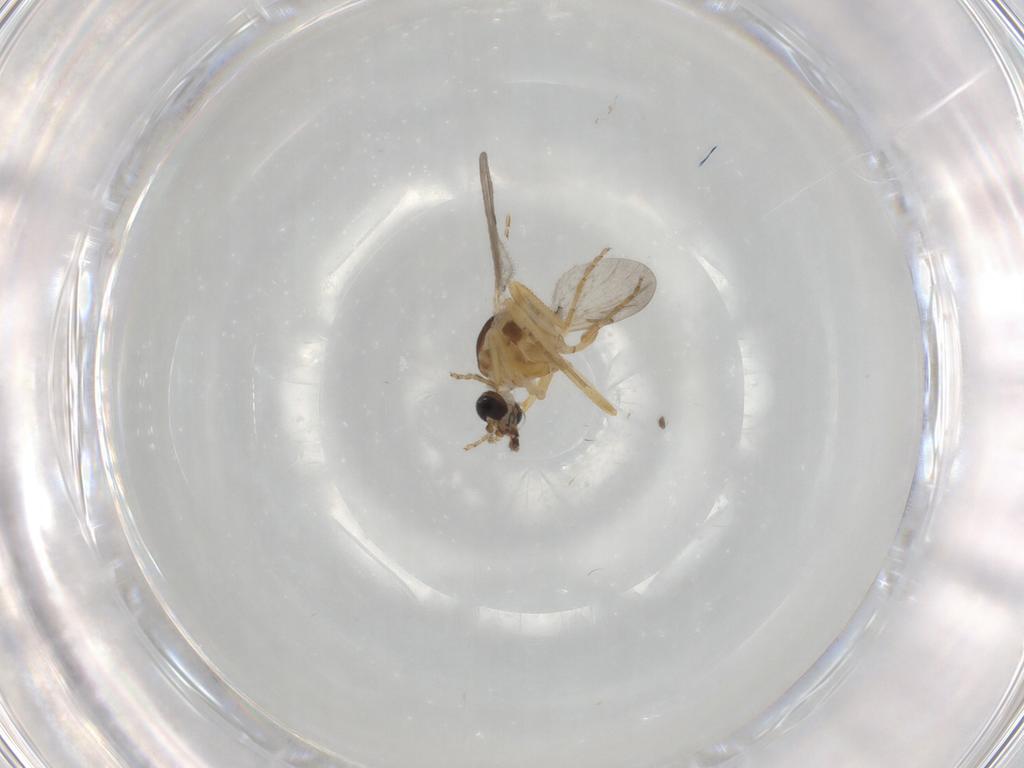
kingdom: Animalia
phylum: Arthropoda
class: Insecta
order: Diptera
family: Ceratopogonidae
